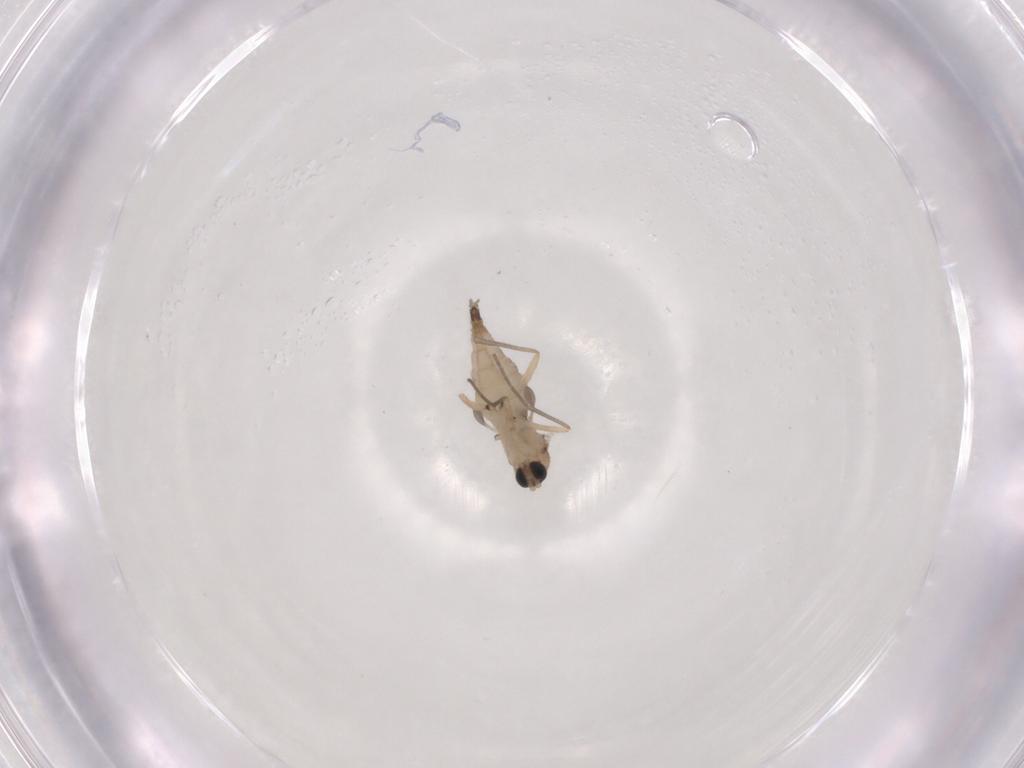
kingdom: Animalia
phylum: Arthropoda
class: Insecta
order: Diptera
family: Sciaridae
